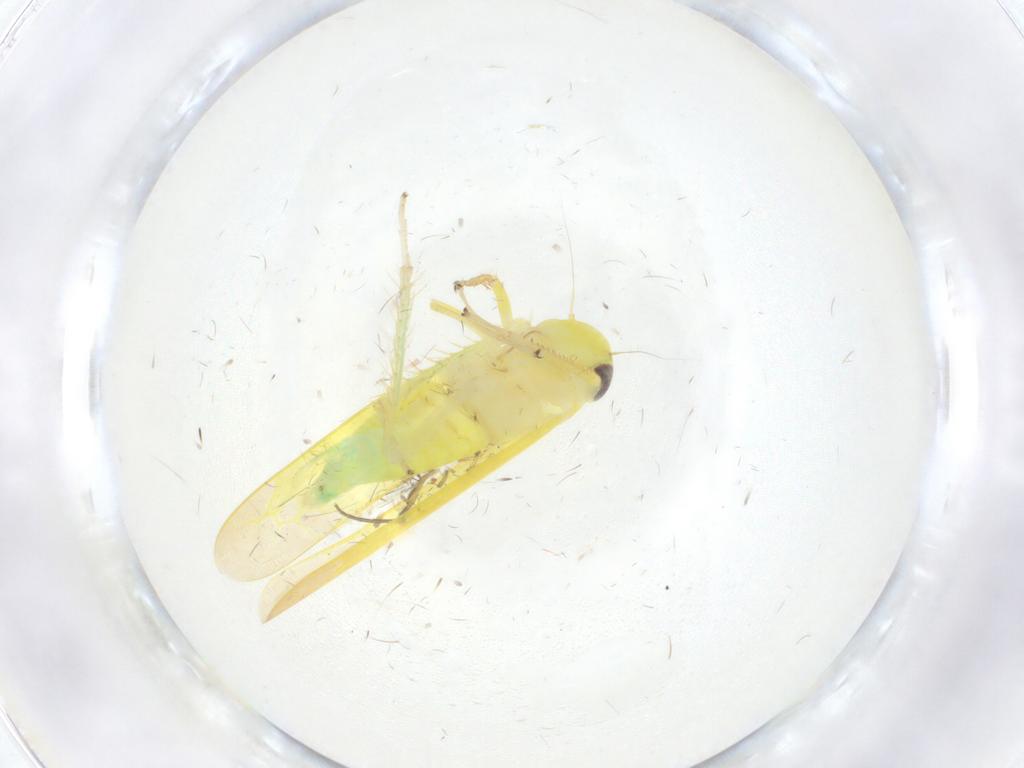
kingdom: Animalia
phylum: Arthropoda
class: Insecta
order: Hemiptera
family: Cicadellidae
